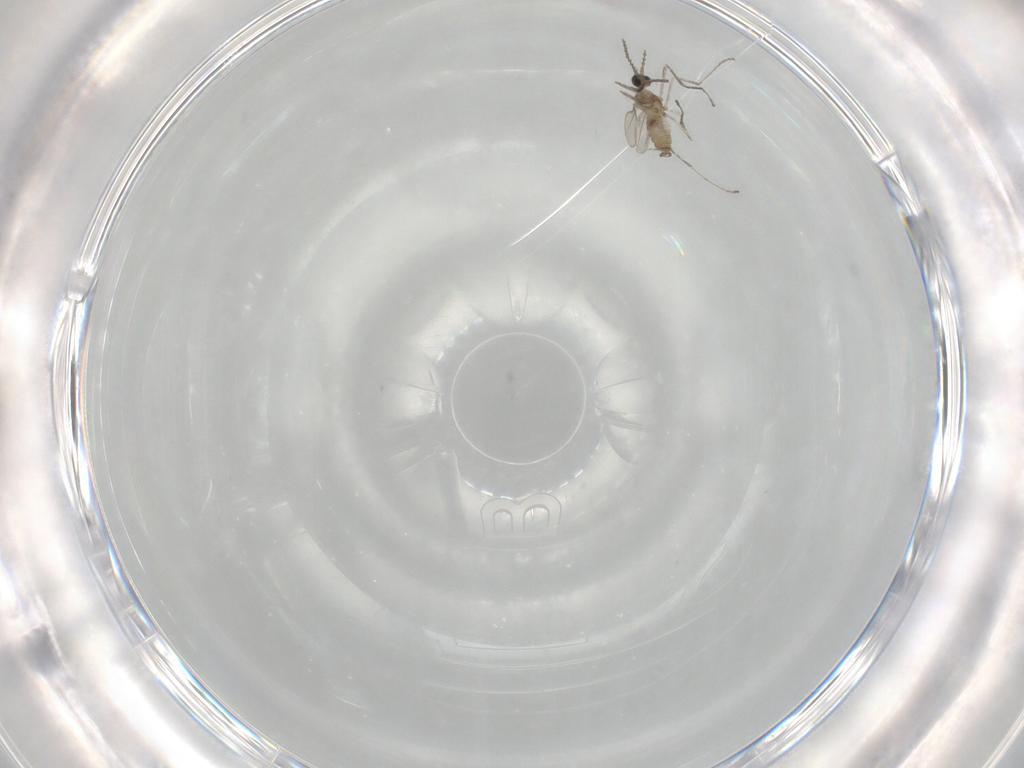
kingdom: Animalia
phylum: Arthropoda
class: Insecta
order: Diptera
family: Cecidomyiidae
